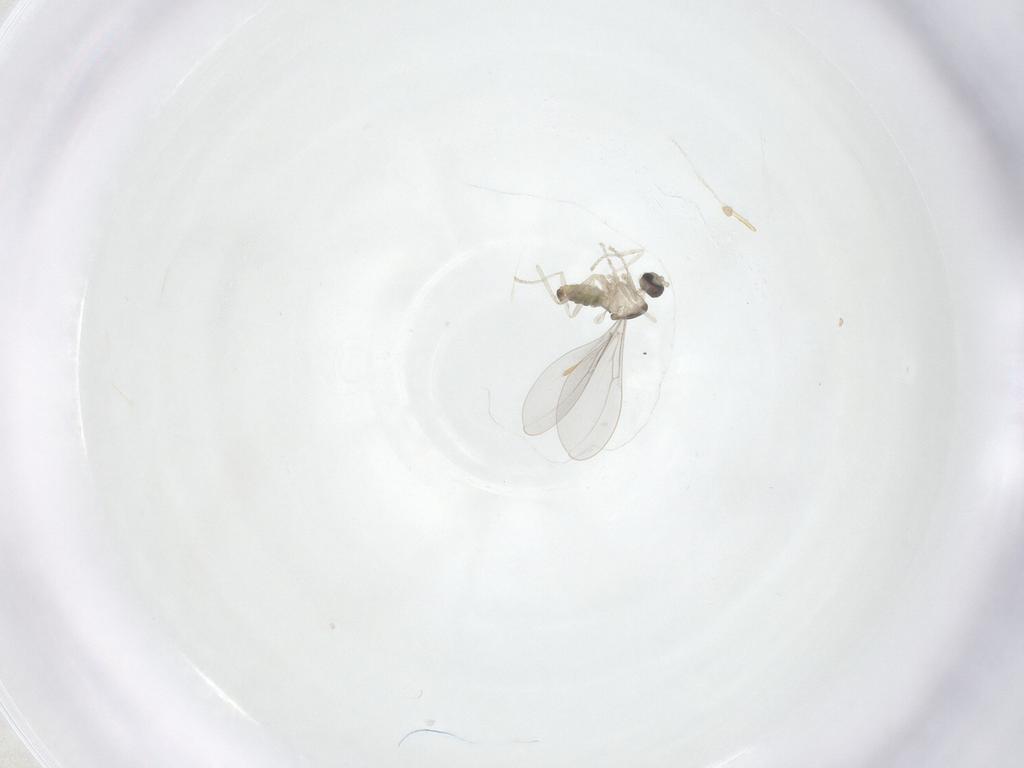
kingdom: Animalia
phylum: Arthropoda
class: Insecta
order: Diptera
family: Cecidomyiidae
